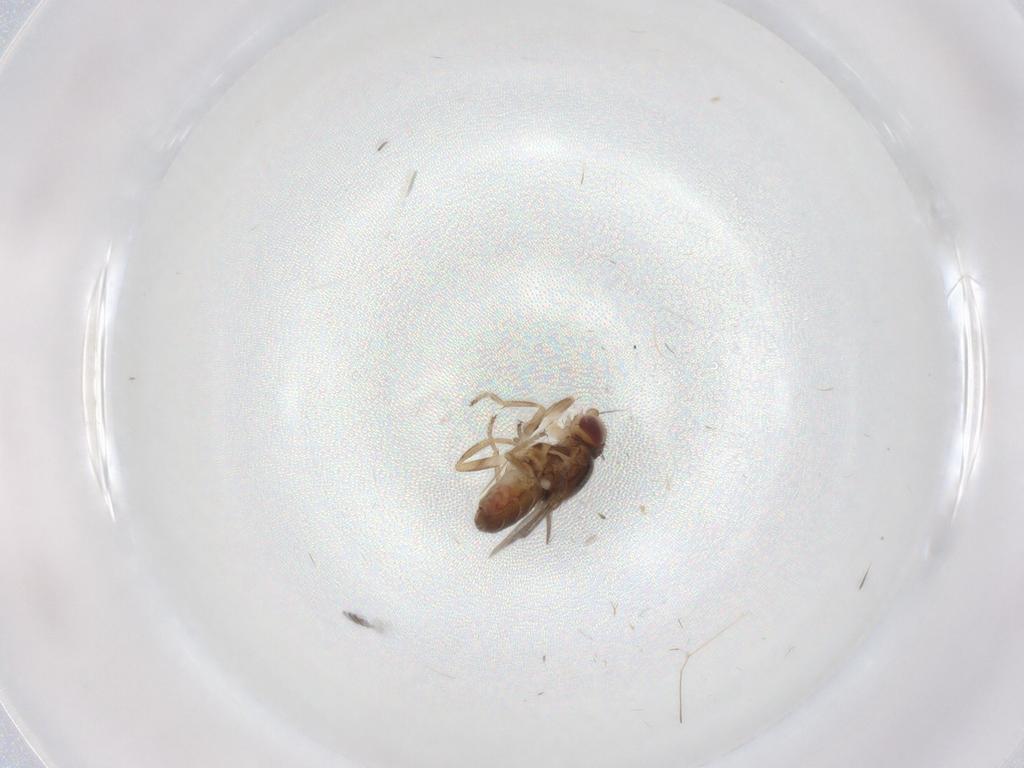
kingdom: Animalia
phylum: Arthropoda
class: Insecta
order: Diptera
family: Chloropidae
